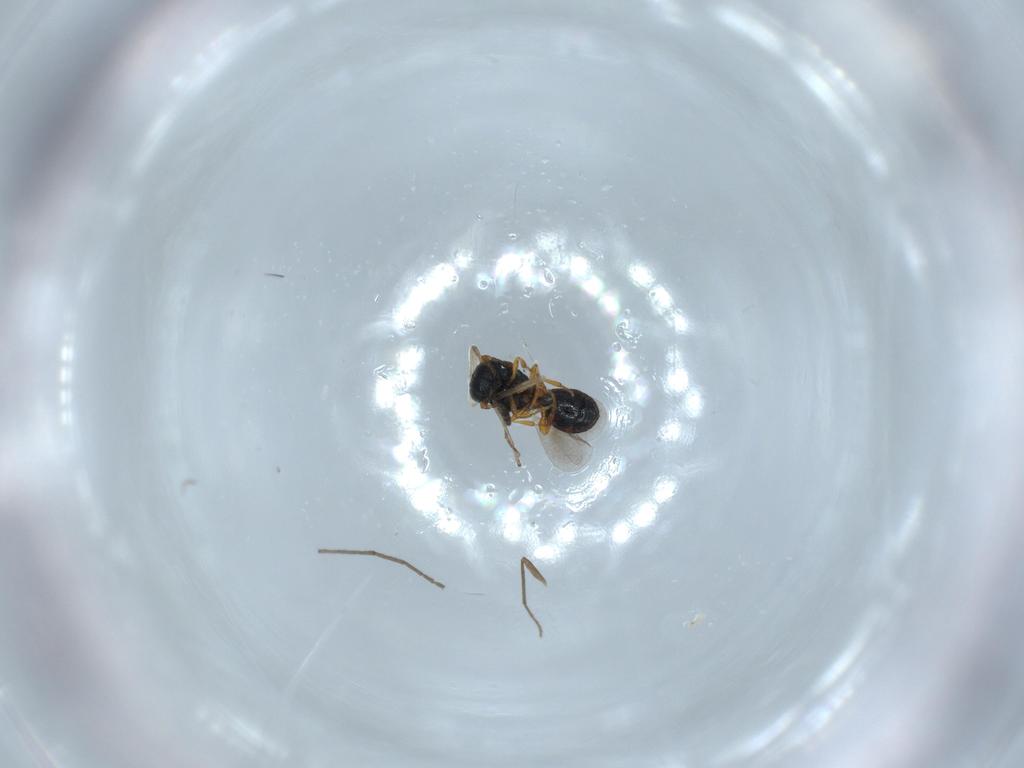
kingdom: Animalia
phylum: Arthropoda
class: Insecta
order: Hymenoptera
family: Platygastridae
